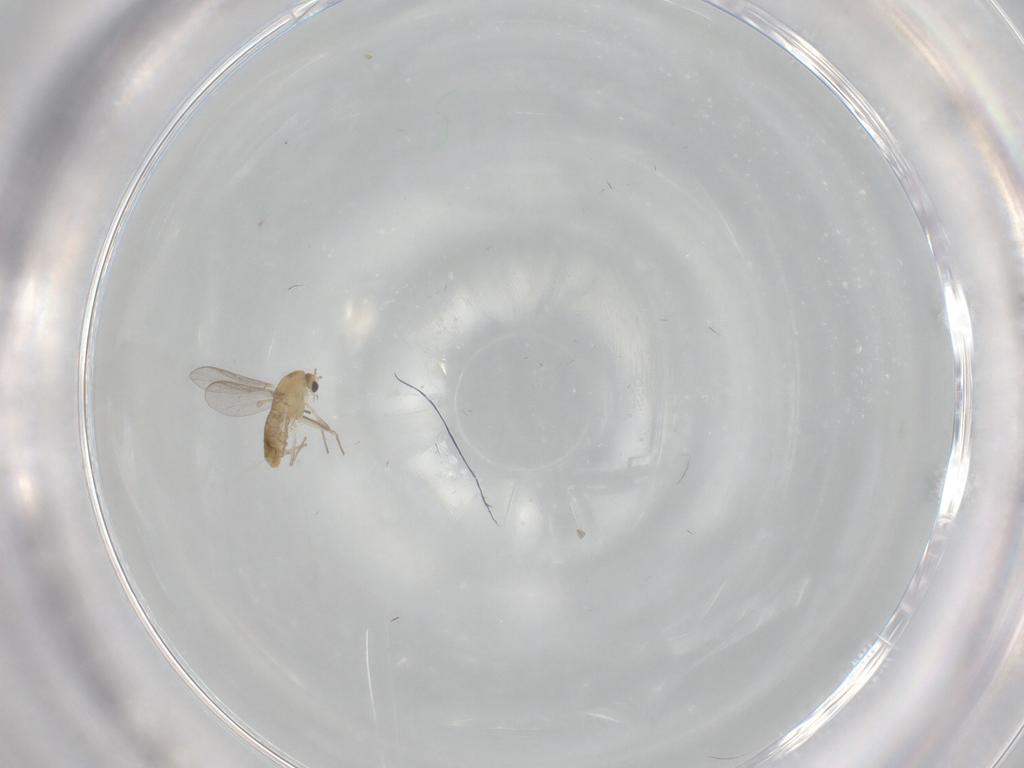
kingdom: Animalia
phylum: Arthropoda
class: Insecta
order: Diptera
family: Chironomidae
